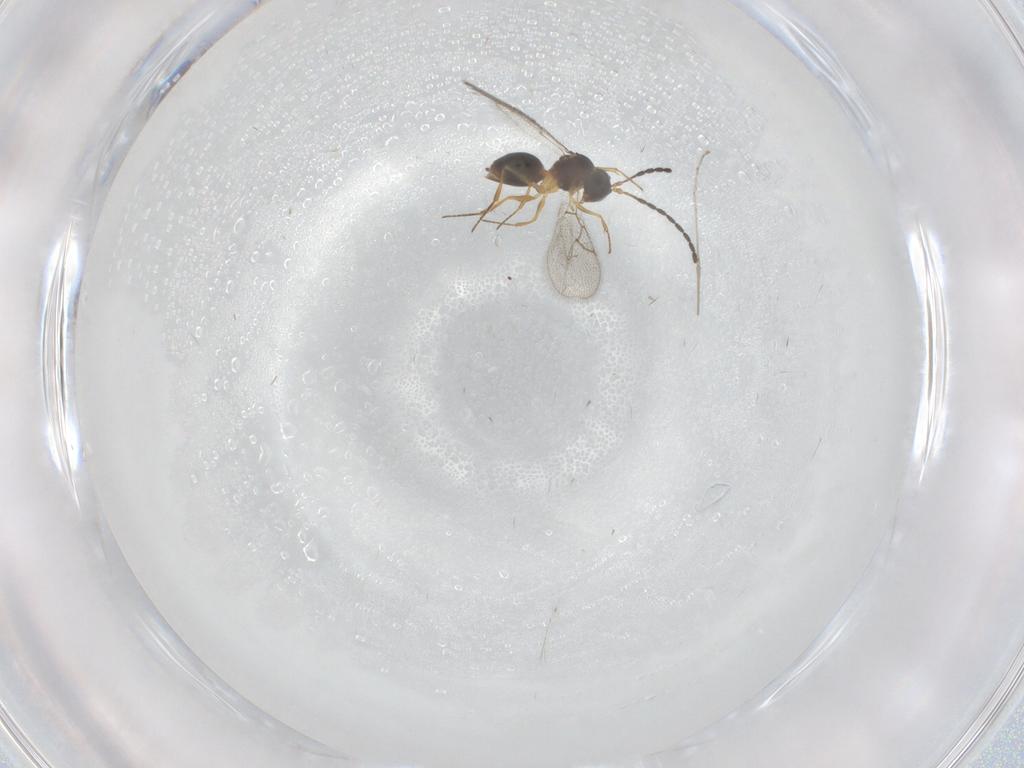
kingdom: Animalia
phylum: Arthropoda
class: Insecta
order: Hymenoptera
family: Figitidae
